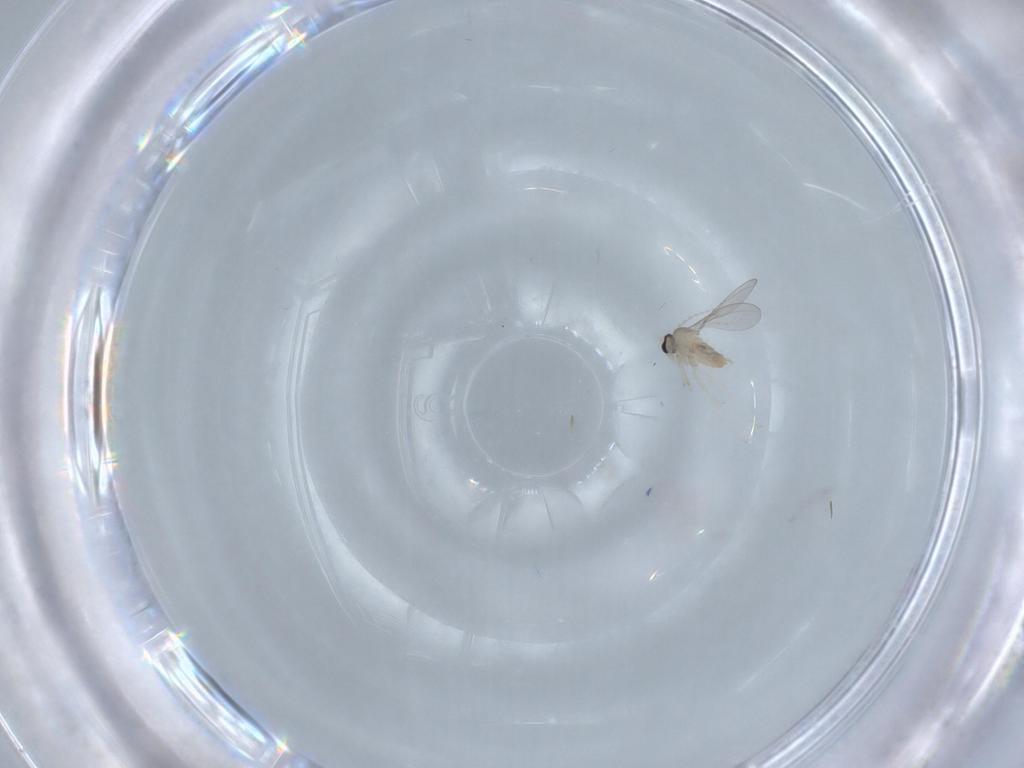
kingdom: Animalia
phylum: Arthropoda
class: Insecta
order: Diptera
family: Cecidomyiidae
